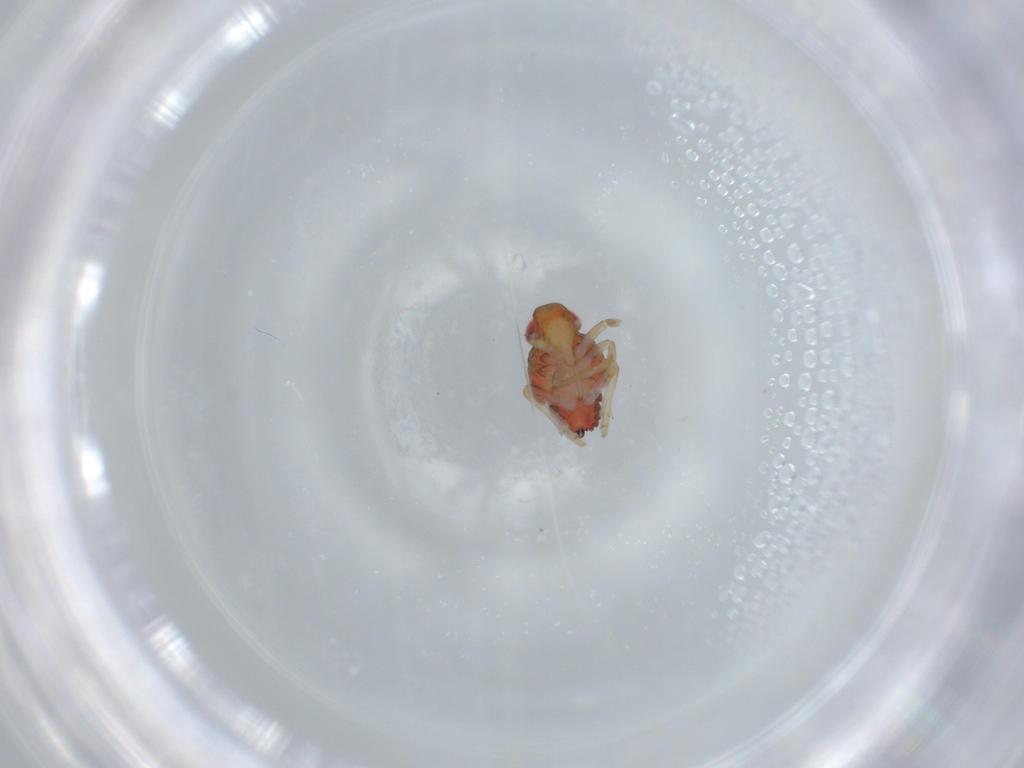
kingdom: Animalia
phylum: Arthropoda
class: Insecta
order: Hemiptera
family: Issidae
